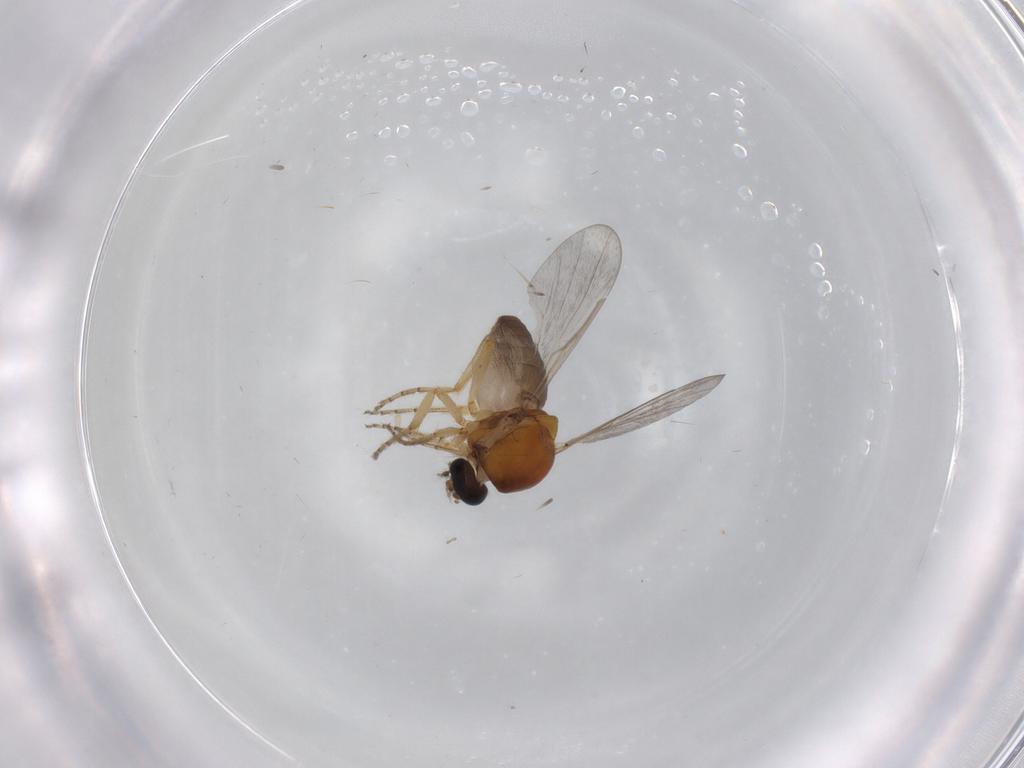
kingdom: Animalia
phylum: Arthropoda
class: Insecta
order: Diptera
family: Ceratopogonidae
